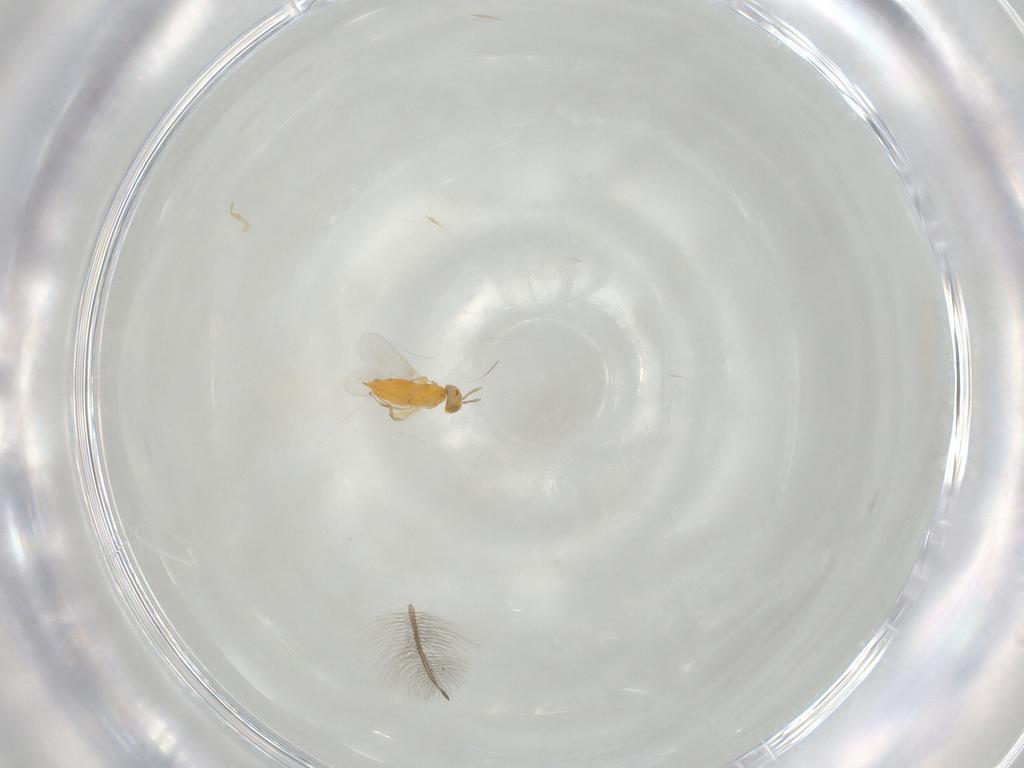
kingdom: Animalia
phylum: Arthropoda
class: Insecta
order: Hymenoptera
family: Aphelinidae
